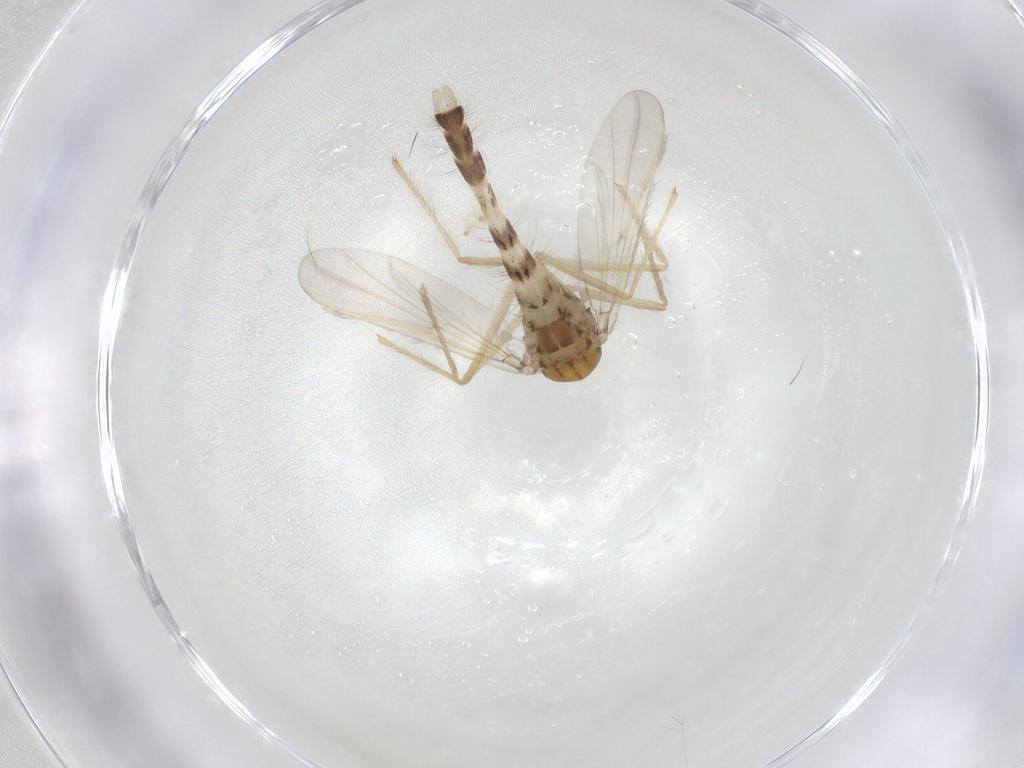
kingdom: Animalia
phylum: Arthropoda
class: Insecta
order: Diptera
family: Chironomidae
